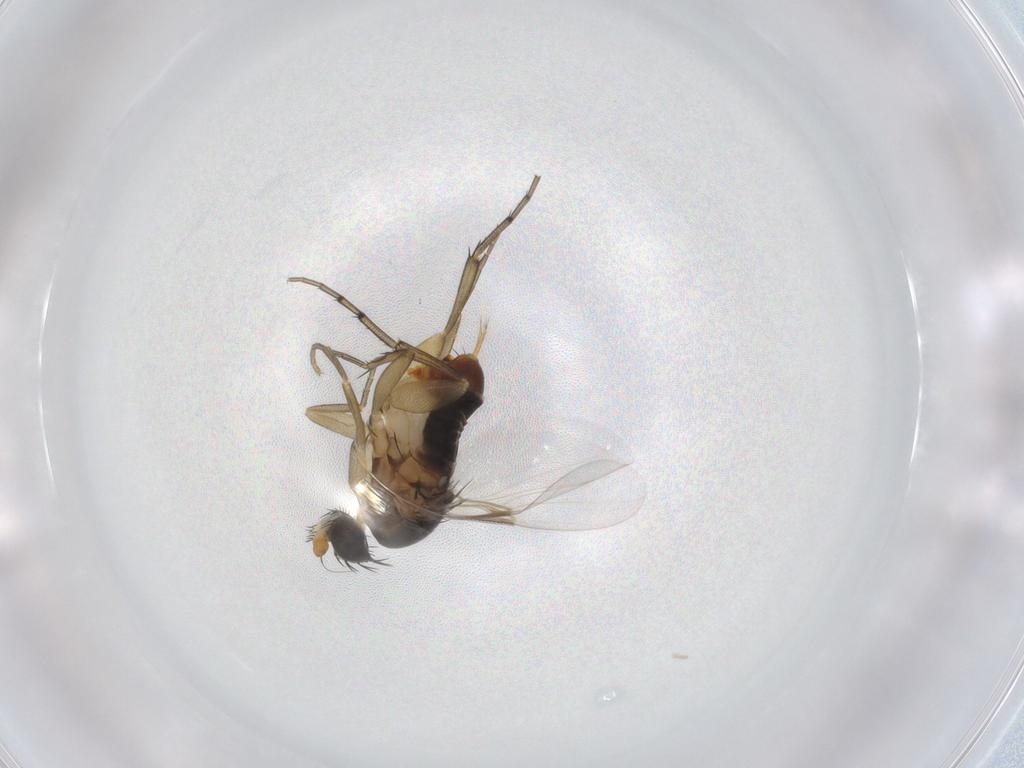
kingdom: Animalia
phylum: Arthropoda
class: Insecta
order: Diptera
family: Phoridae
